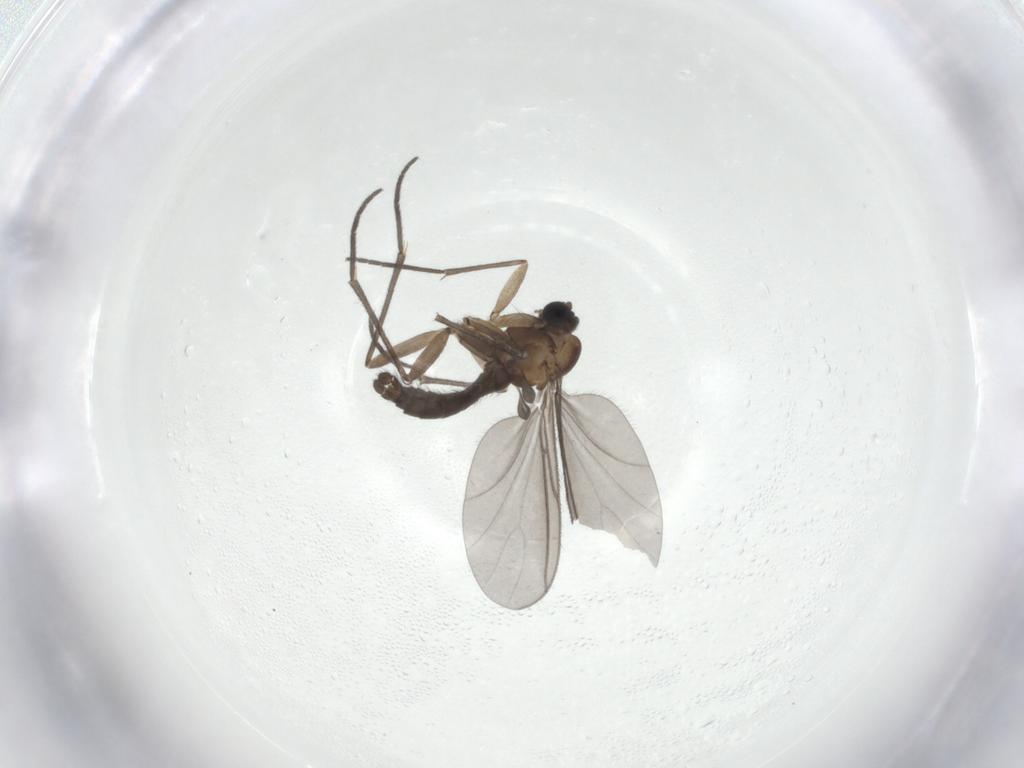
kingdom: Animalia
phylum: Arthropoda
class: Insecta
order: Diptera
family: Sciaridae
